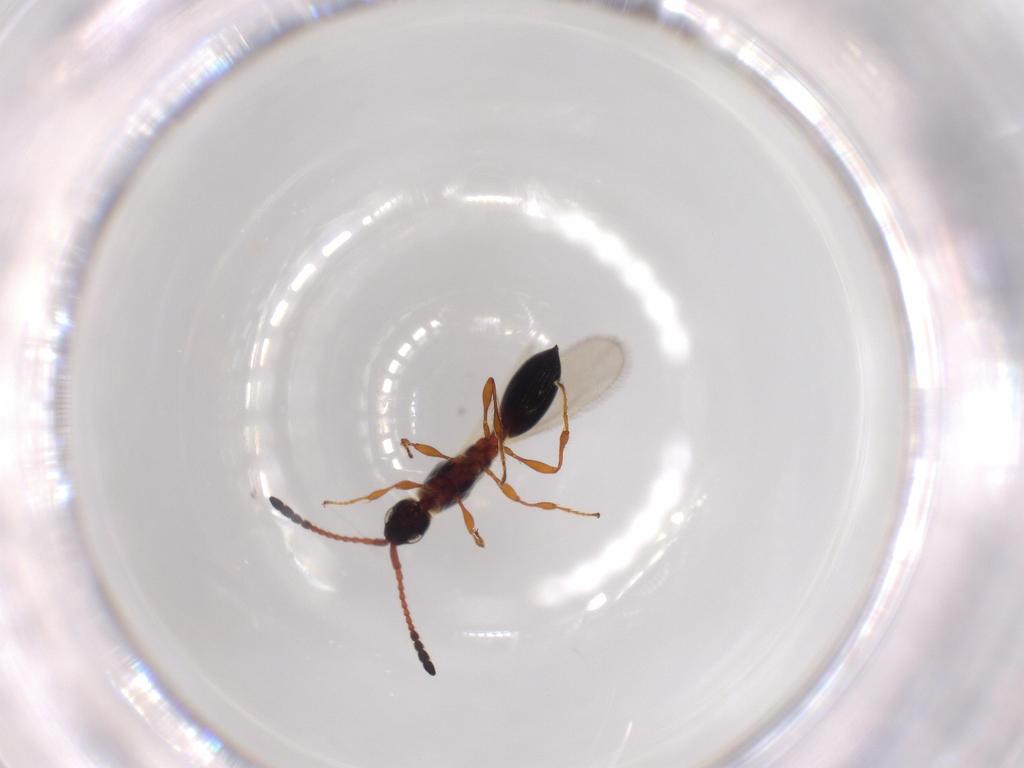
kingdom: Animalia
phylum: Arthropoda
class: Insecta
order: Hymenoptera
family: Diapriidae
